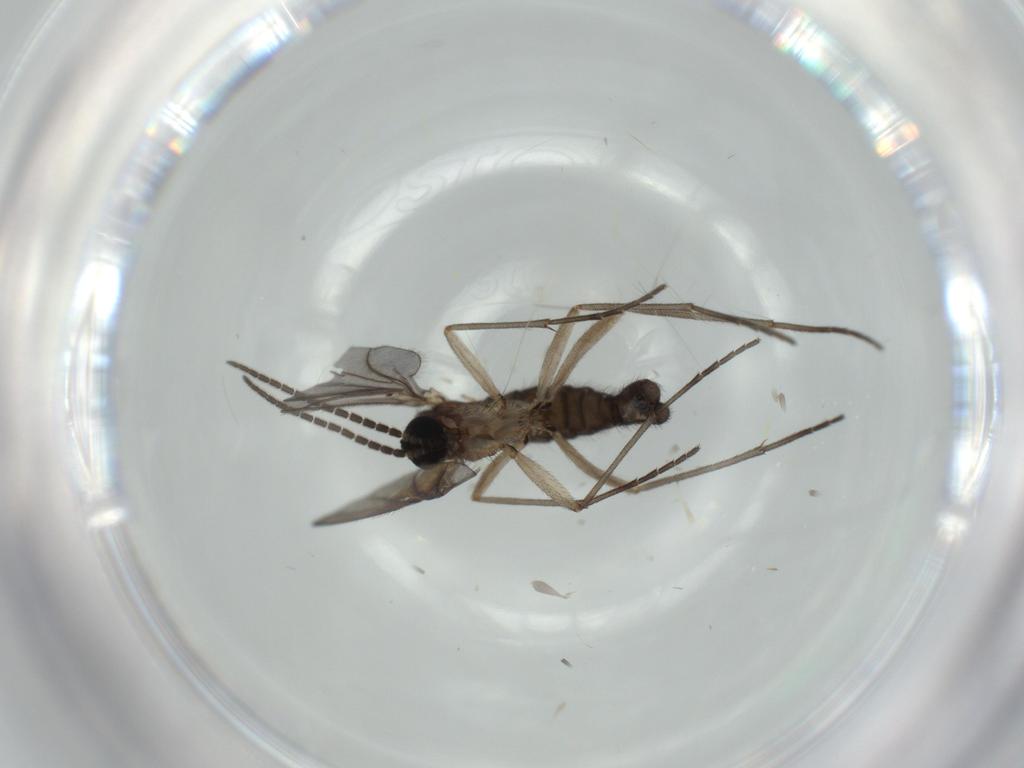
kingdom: Animalia
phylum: Arthropoda
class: Insecta
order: Diptera
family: Sciaridae
